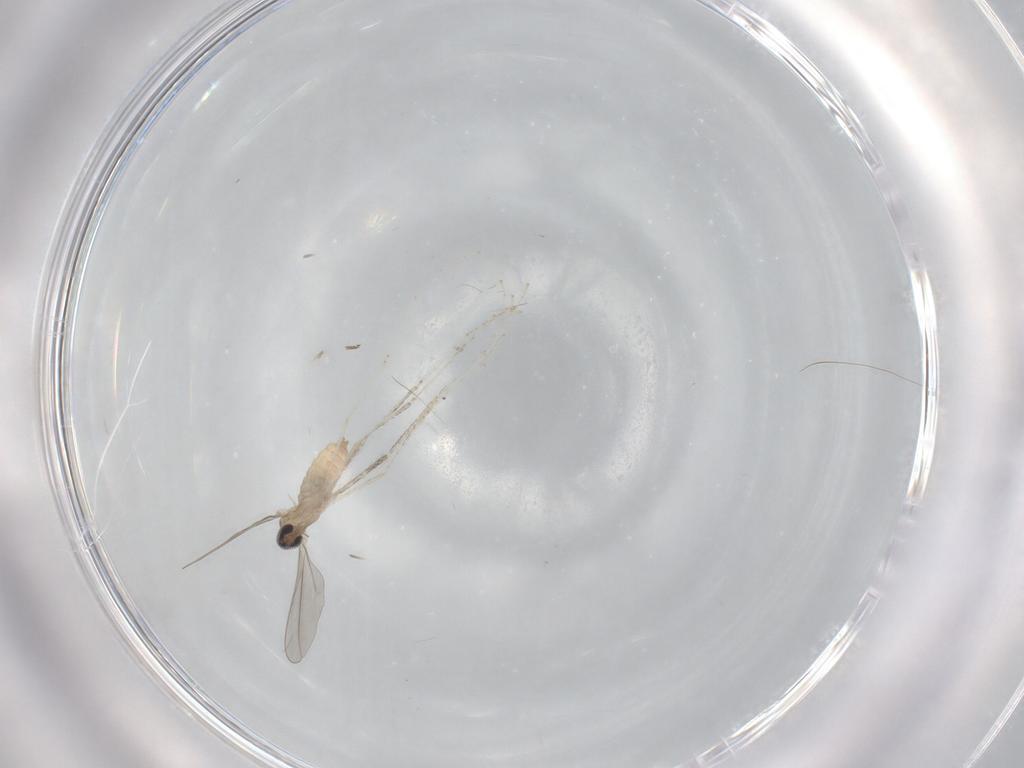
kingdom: Animalia
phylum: Arthropoda
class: Insecta
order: Diptera
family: Cecidomyiidae
